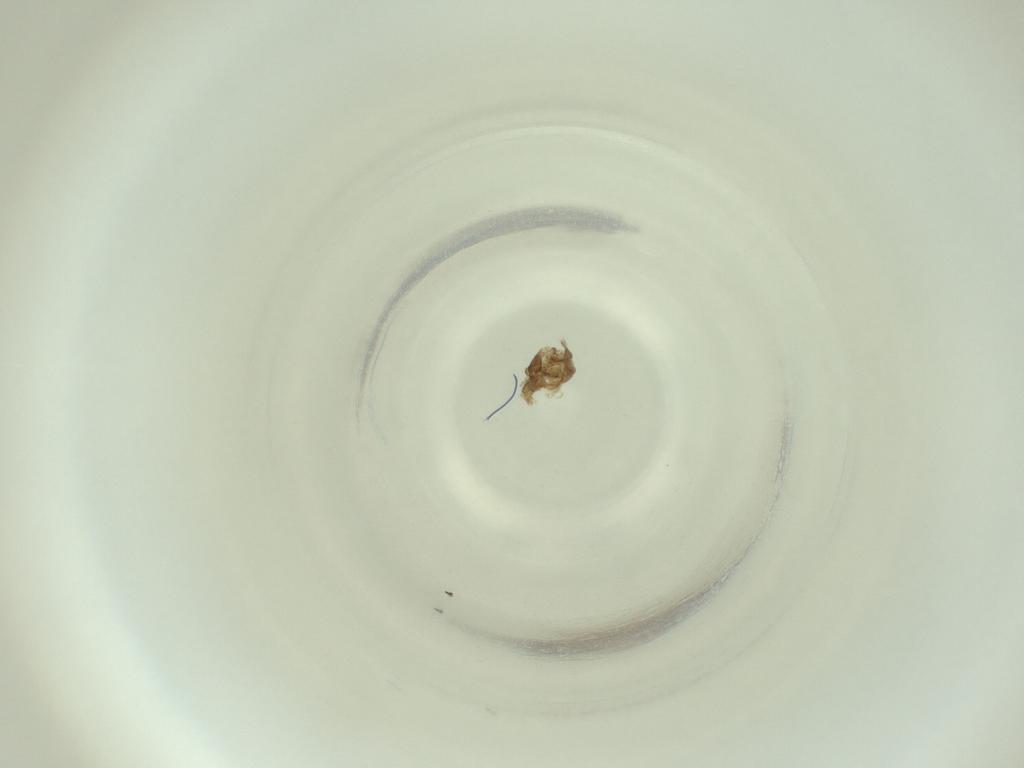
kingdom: Animalia
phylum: Arthropoda
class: Insecta
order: Diptera
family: Cecidomyiidae
